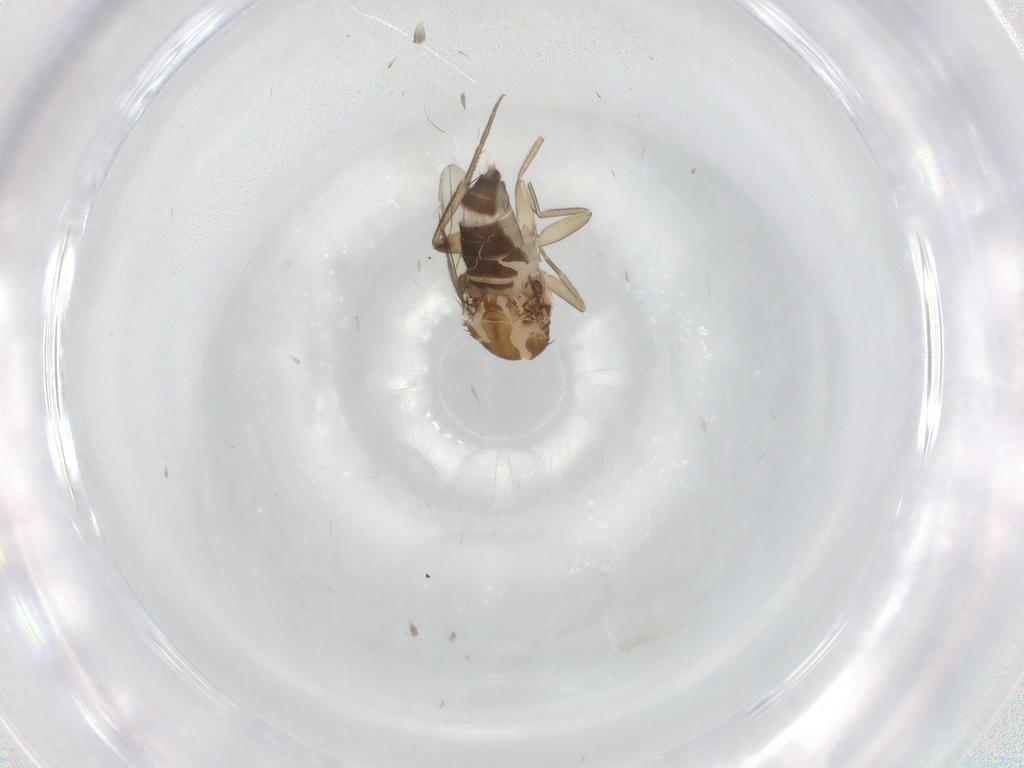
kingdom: Animalia
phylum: Arthropoda
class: Insecta
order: Diptera
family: Phoridae
